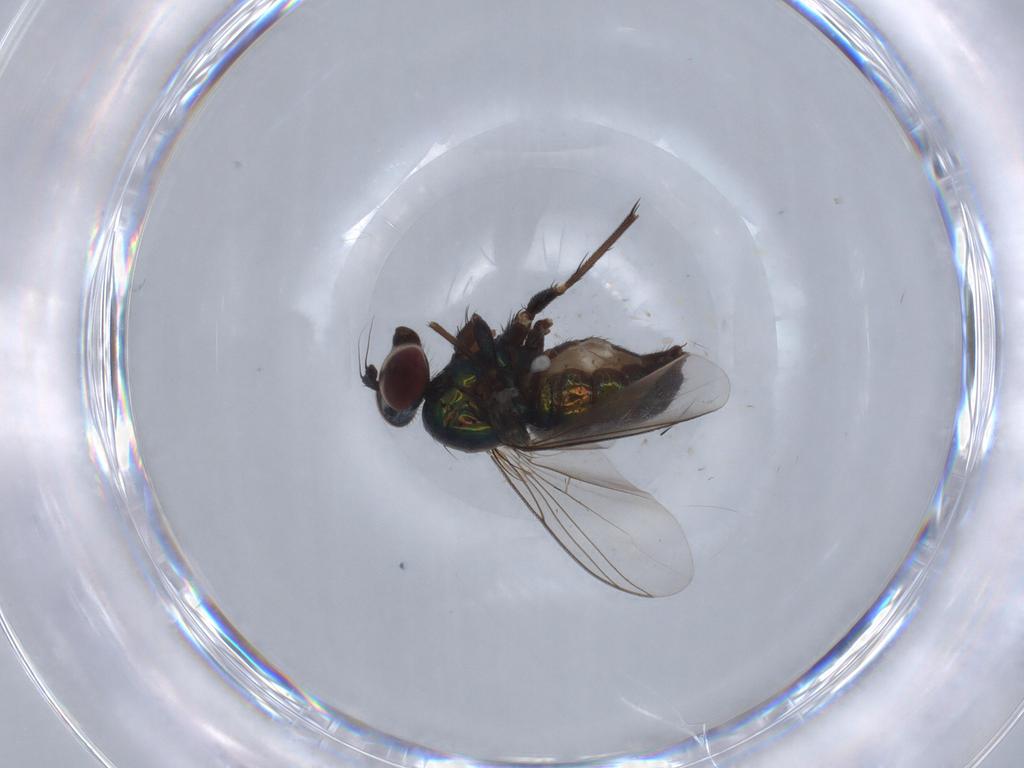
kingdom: Animalia
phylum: Arthropoda
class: Insecta
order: Diptera
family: Dolichopodidae
